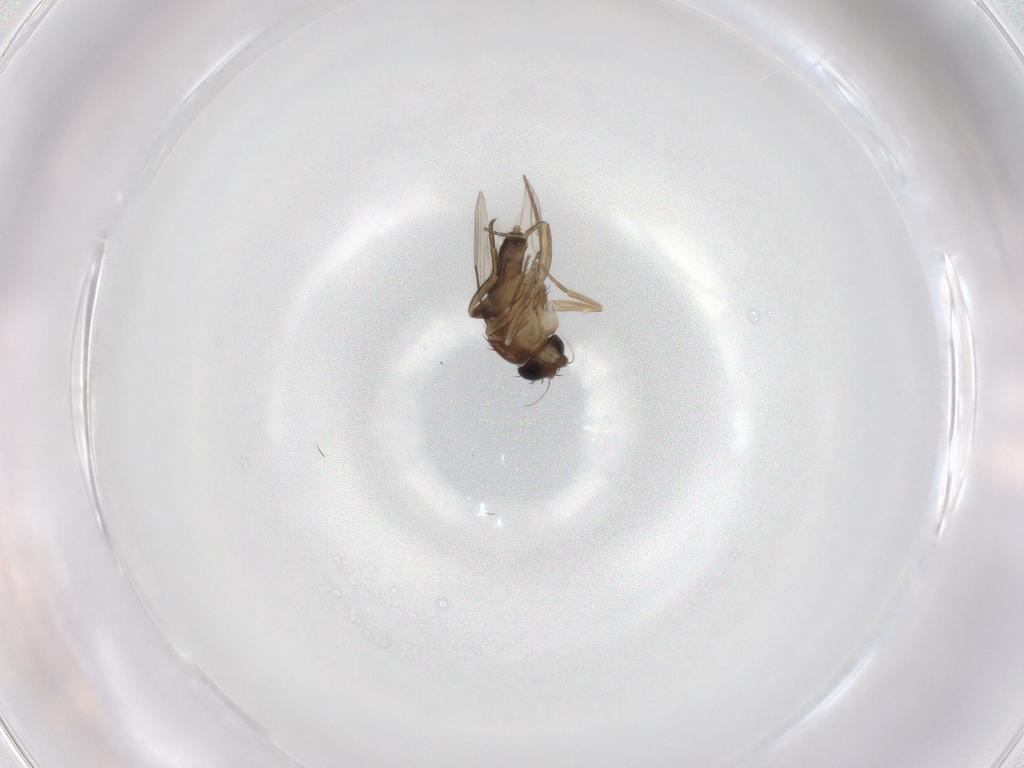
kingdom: Animalia
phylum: Arthropoda
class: Insecta
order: Diptera
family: Phoridae
